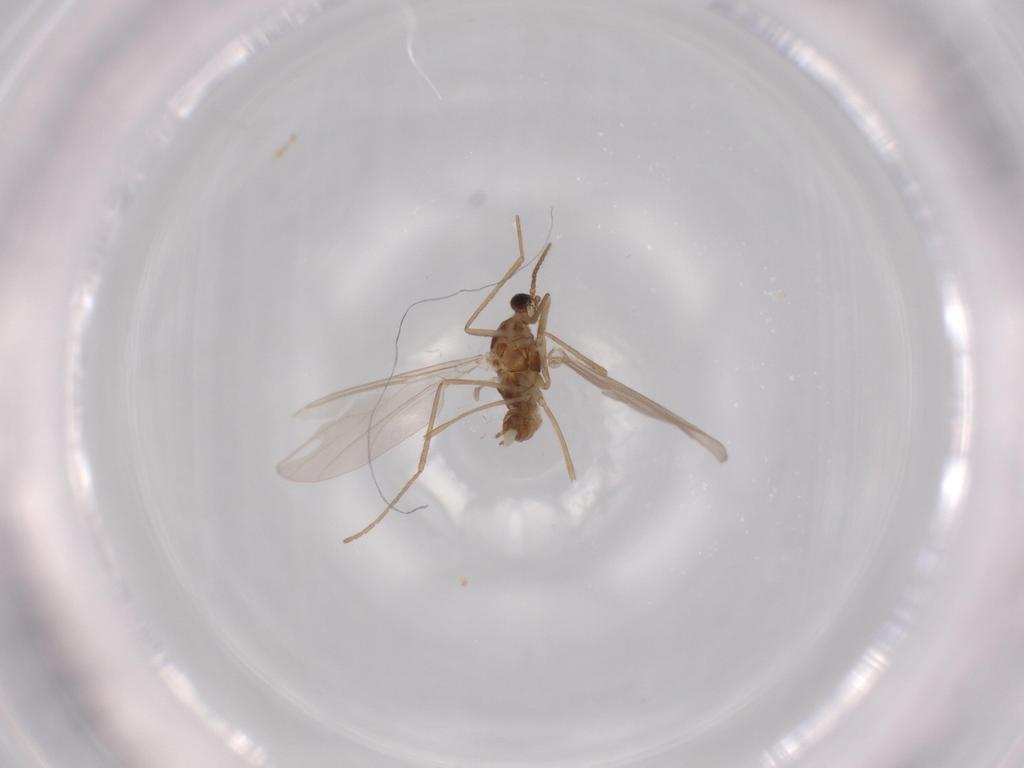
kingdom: Animalia
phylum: Arthropoda
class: Insecta
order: Diptera
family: Cecidomyiidae
